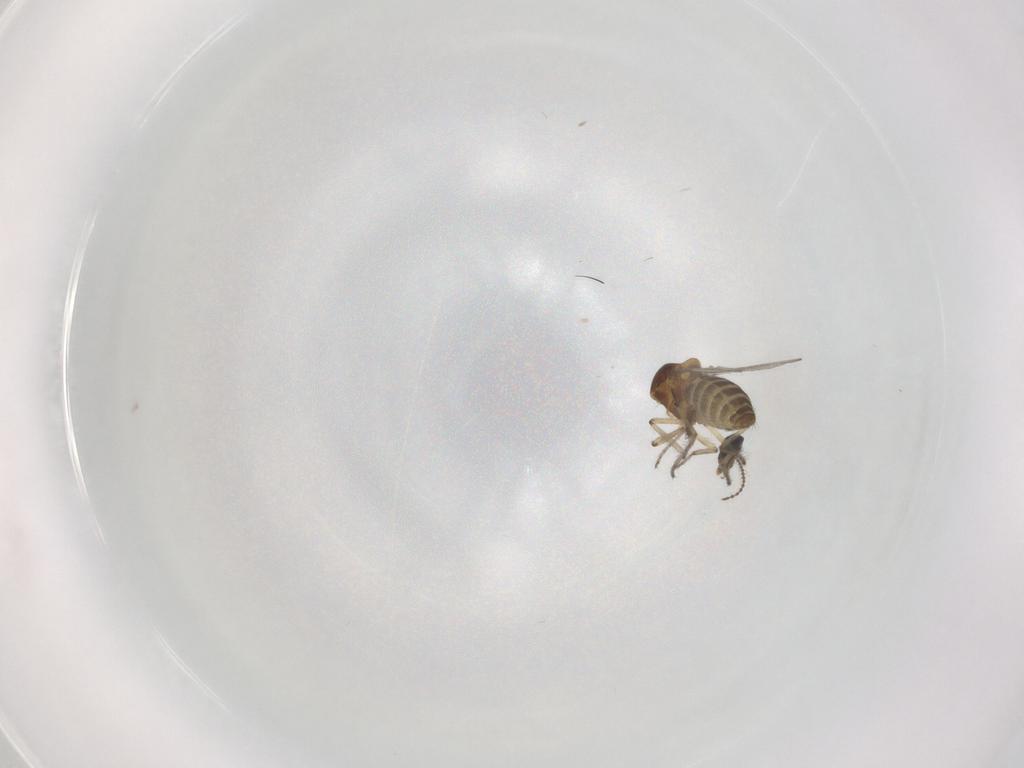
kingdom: Animalia
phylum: Arthropoda
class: Insecta
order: Diptera
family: Ceratopogonidae
